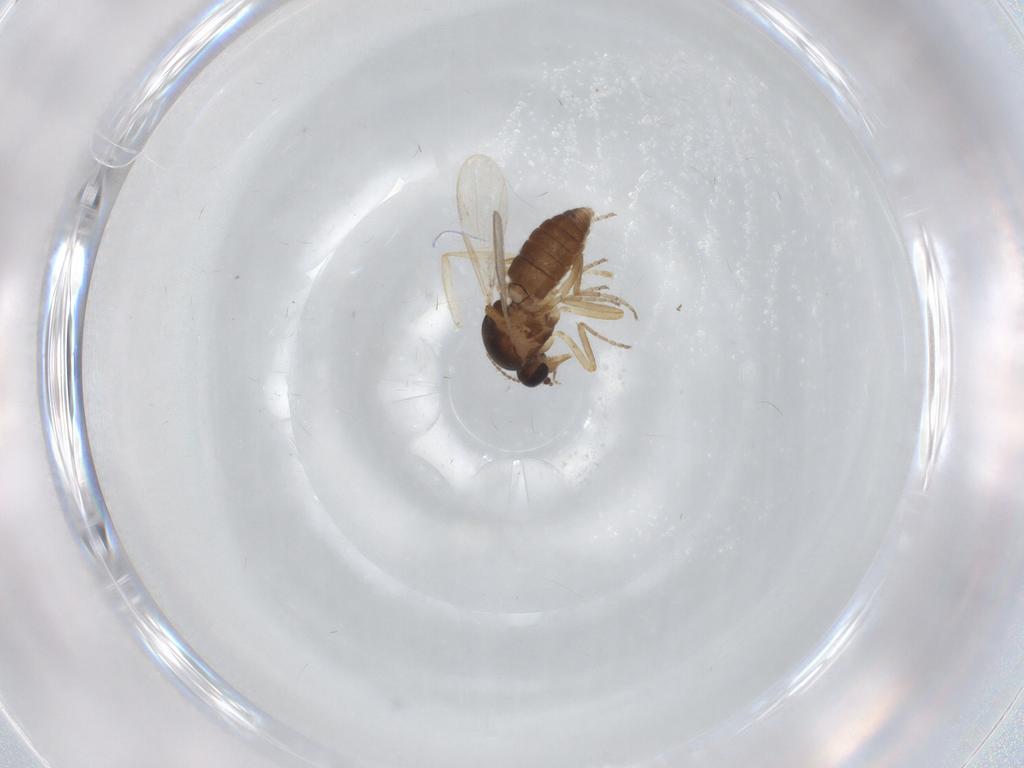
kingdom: Animalia
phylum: Arthropoda
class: Insecta
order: Diptera
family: Ceratopogonidae
